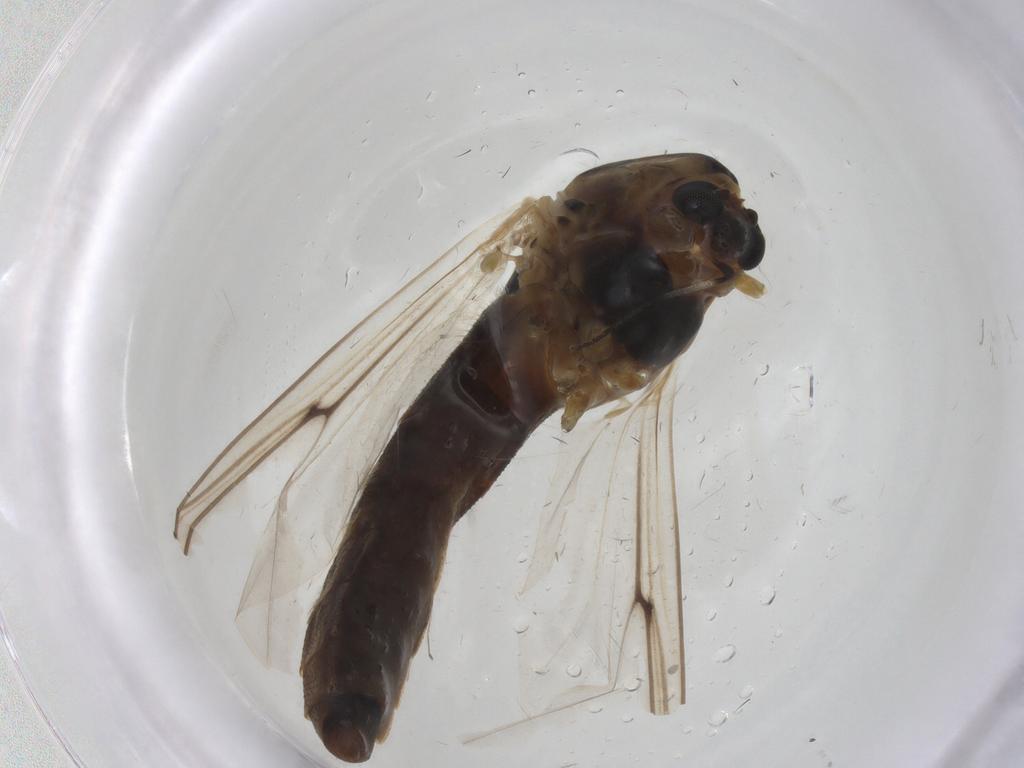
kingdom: Animalia
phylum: Arthropoda
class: Insecta
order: Diptera
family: Chironomidae
